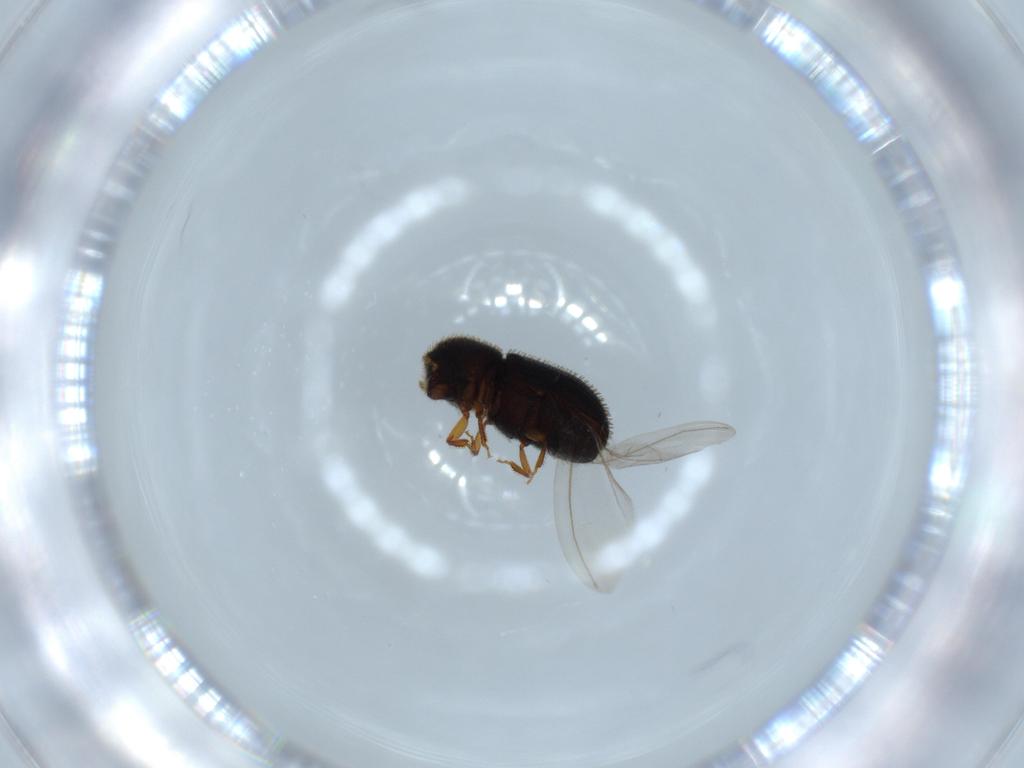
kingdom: Animalia
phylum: Arthropoda
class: Insecta
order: Coleoptera
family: Curculionidae
